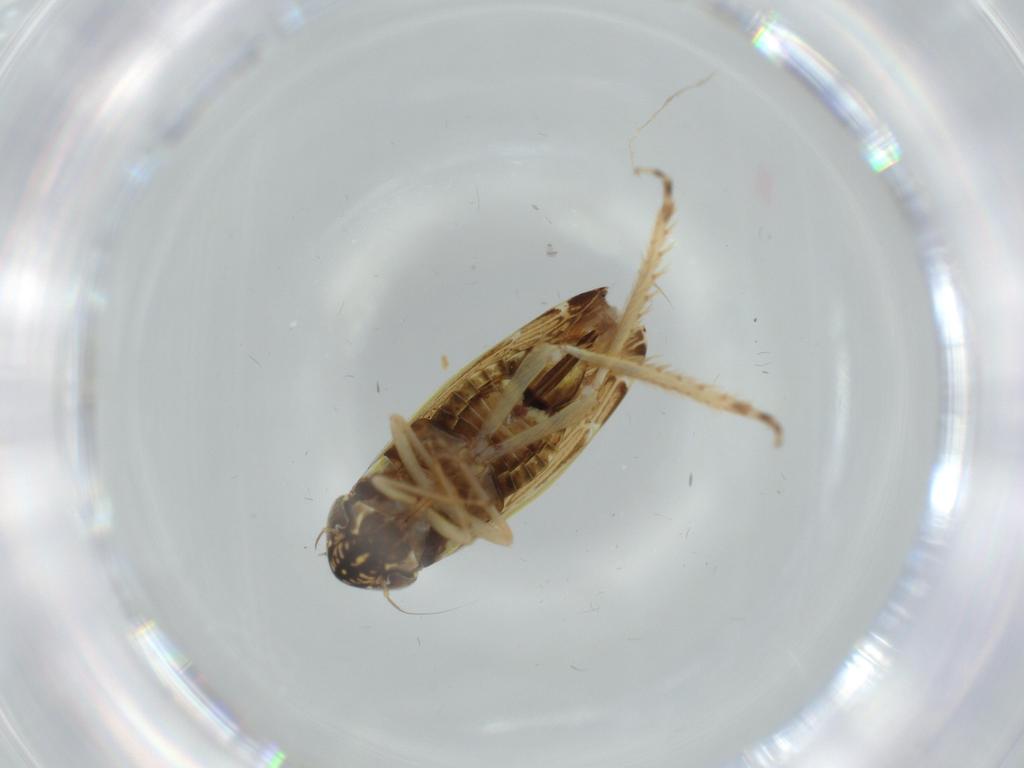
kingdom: Animalia
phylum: Arthropoda
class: Insecta
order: Hemiptera
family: Cicadellidae
